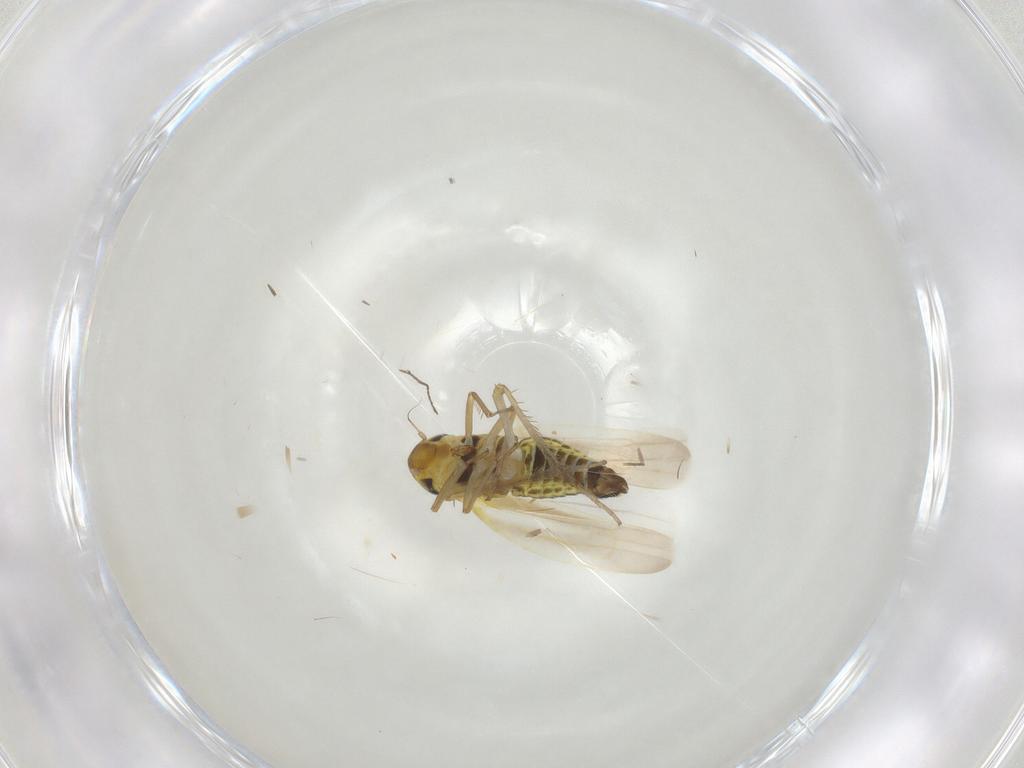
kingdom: Animalia
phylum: Arthropoda
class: Insecta
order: Hemiptera
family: Cicadellidae
